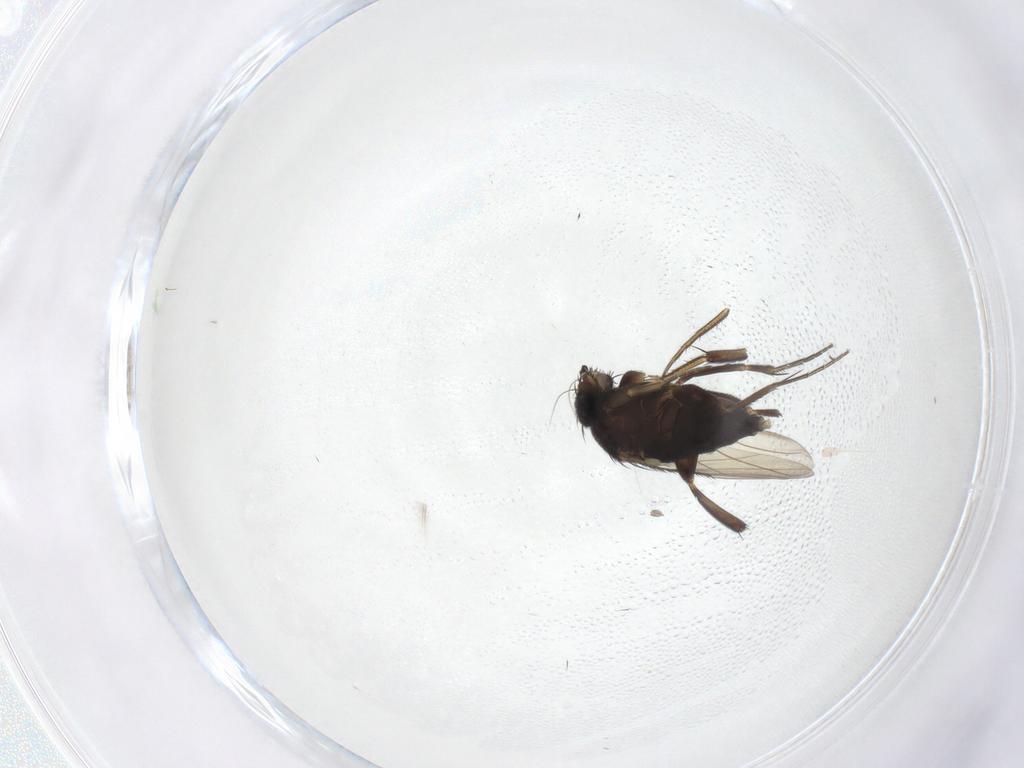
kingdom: Animalia
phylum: Arthropoda
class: Insecta
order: Diptera
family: Phoridae
